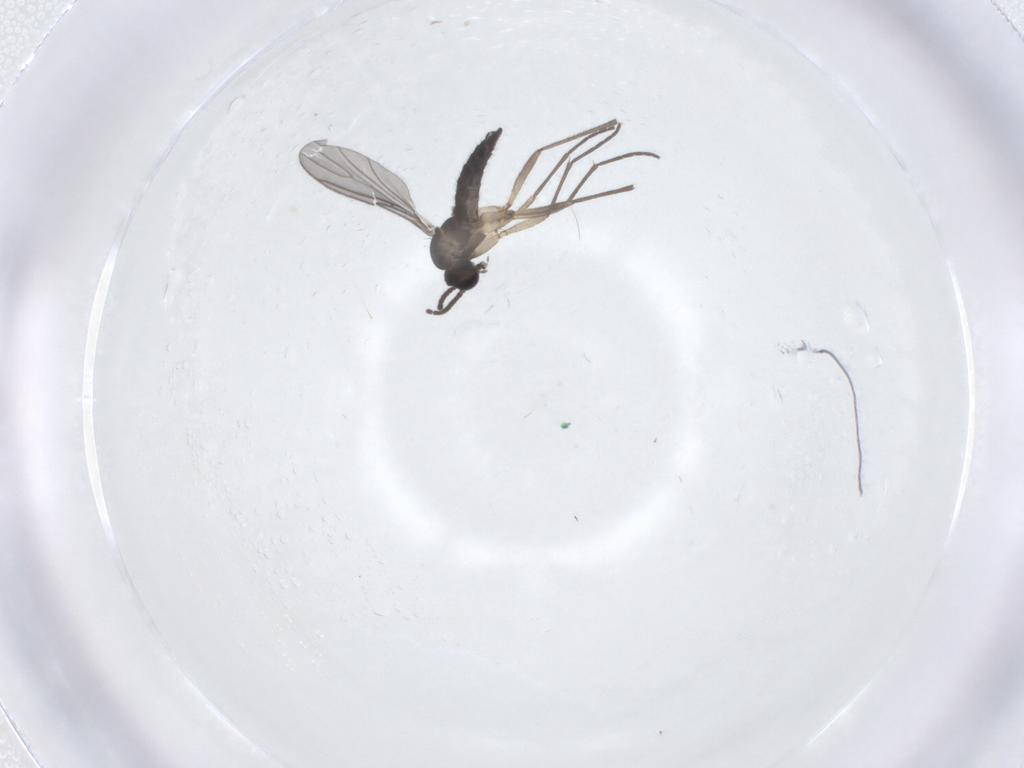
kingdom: Animalia
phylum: Arthropoda
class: Insecta
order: Diptera
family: Sciaridae
